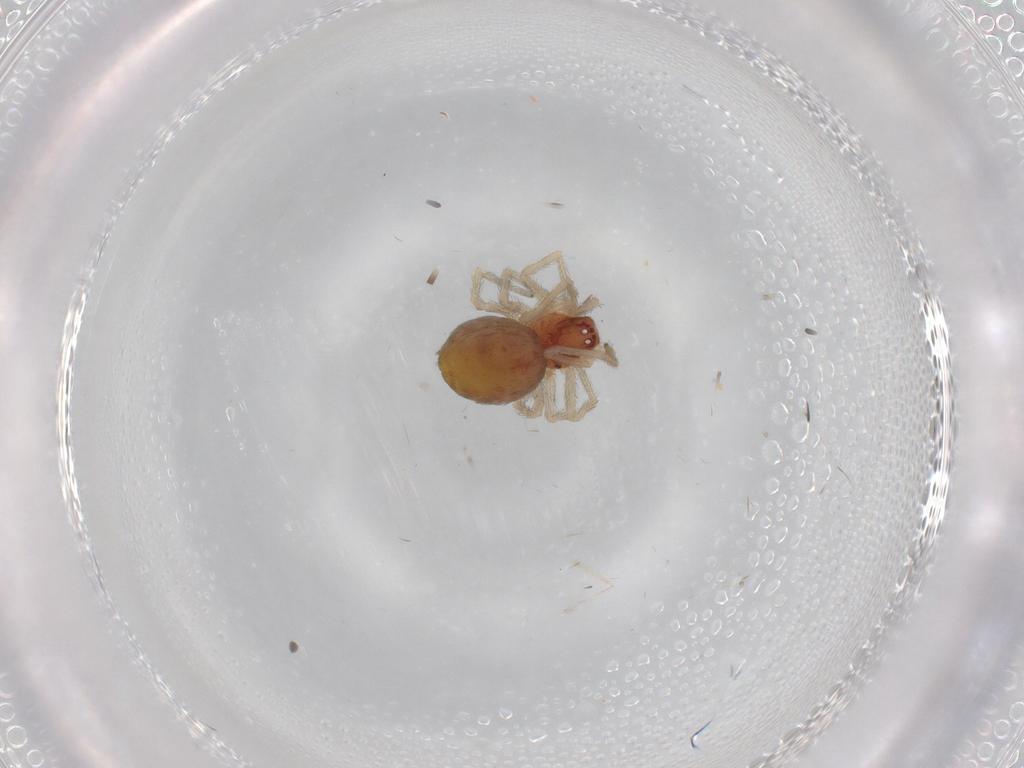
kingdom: Animalia
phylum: Arthropoda
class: Arachnida
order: Araneae
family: Dictynidae
